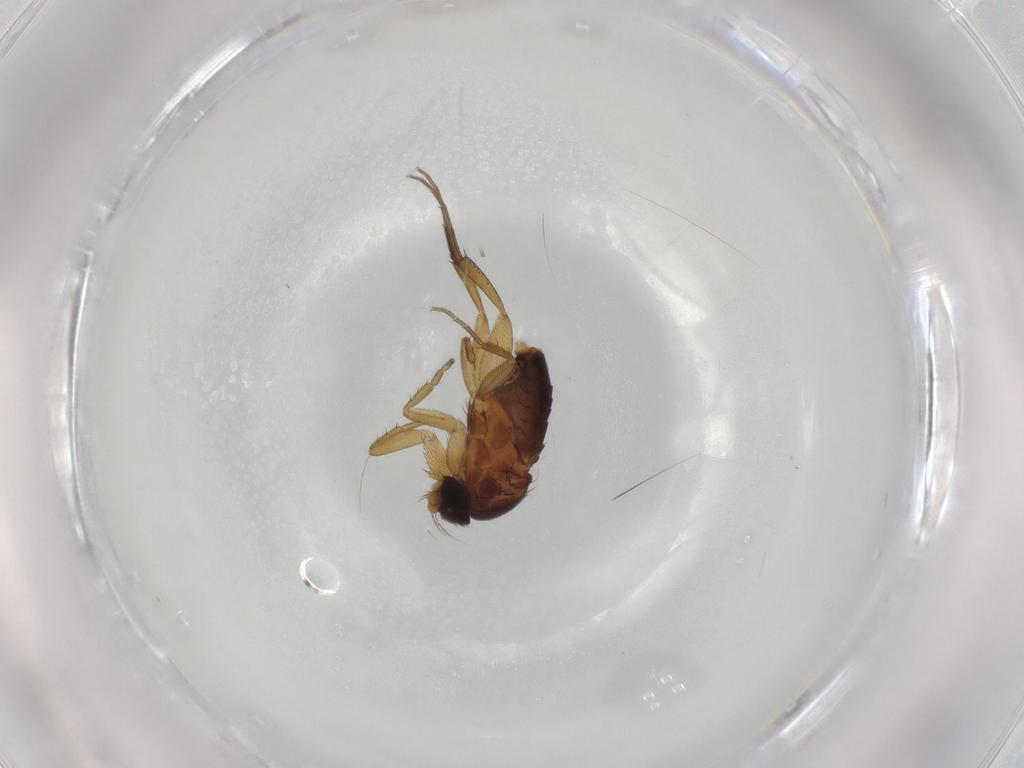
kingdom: Animalia
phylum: Arthropoda
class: Insecta
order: Diptera
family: Phoridae
